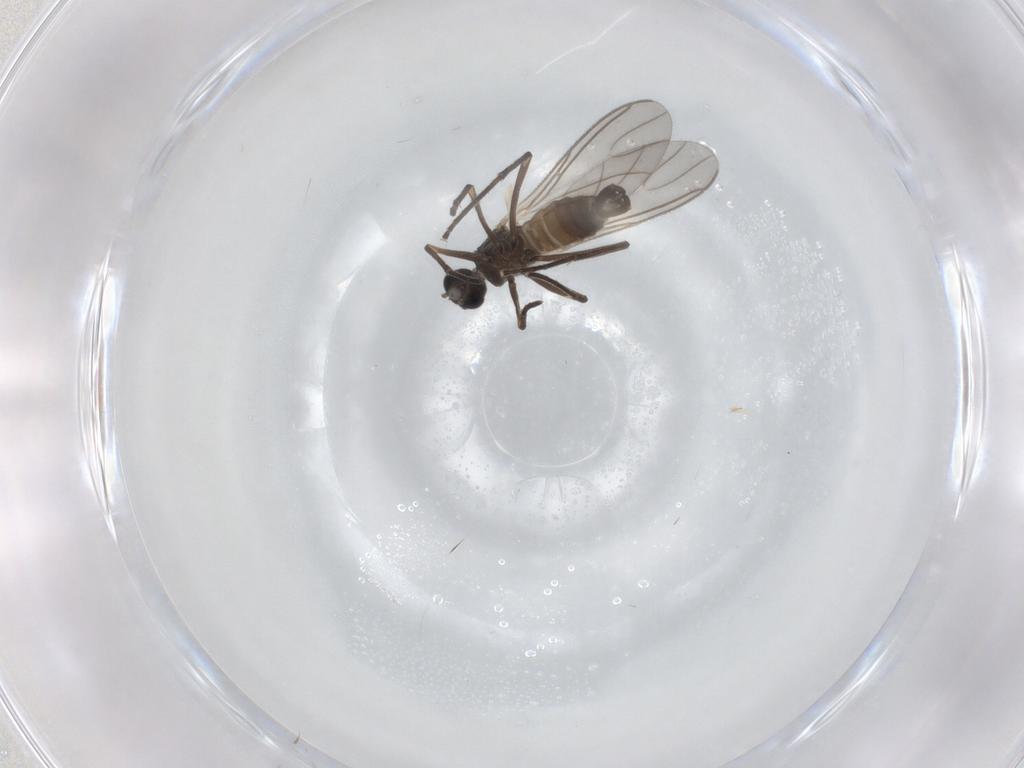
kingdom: Animalia
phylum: Arthropoda
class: Insecta
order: Diptera
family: Sciaridae
